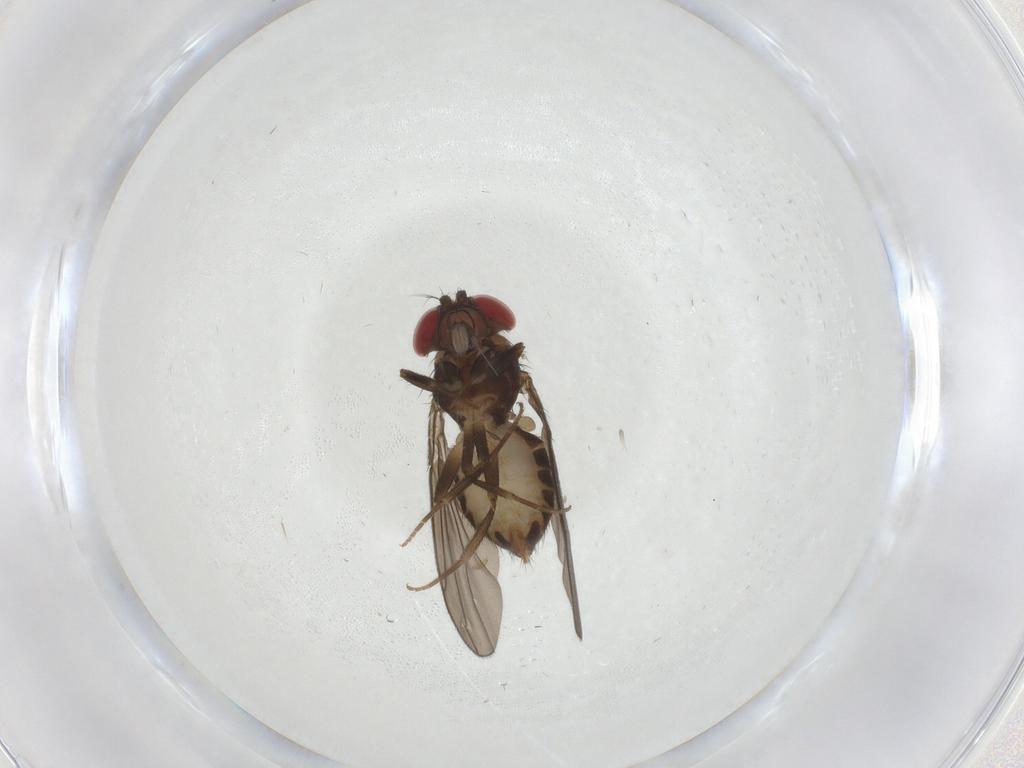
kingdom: Animalia
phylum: Arthropoda
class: Insecta
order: Diptera
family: Drosophilidae
